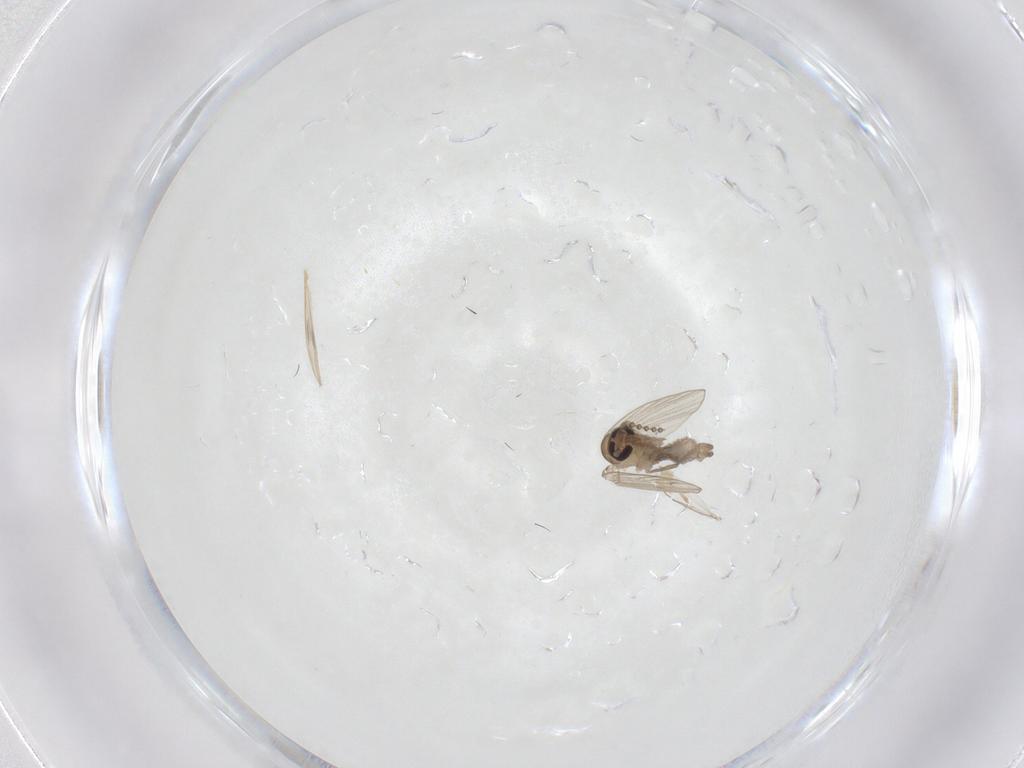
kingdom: Animalia
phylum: Arthropoda
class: Insecta
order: Diptera
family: Psychodidae
